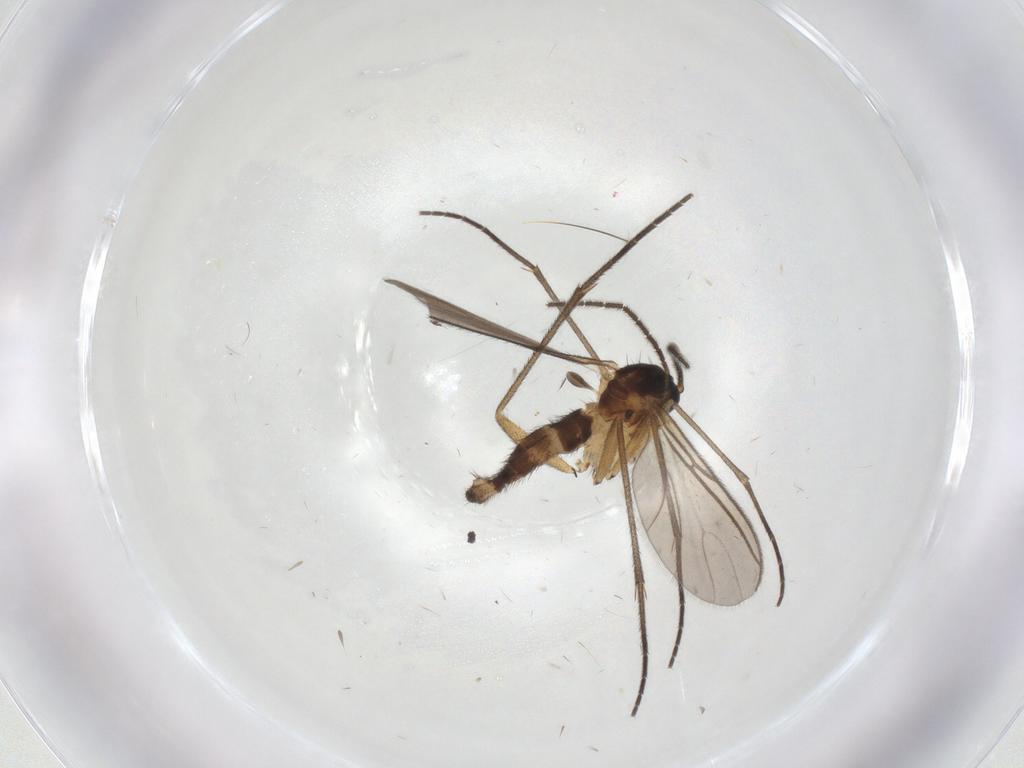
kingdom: Animalia
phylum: Arthropoda
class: Insecta
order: Diptera
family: Sciaridae
